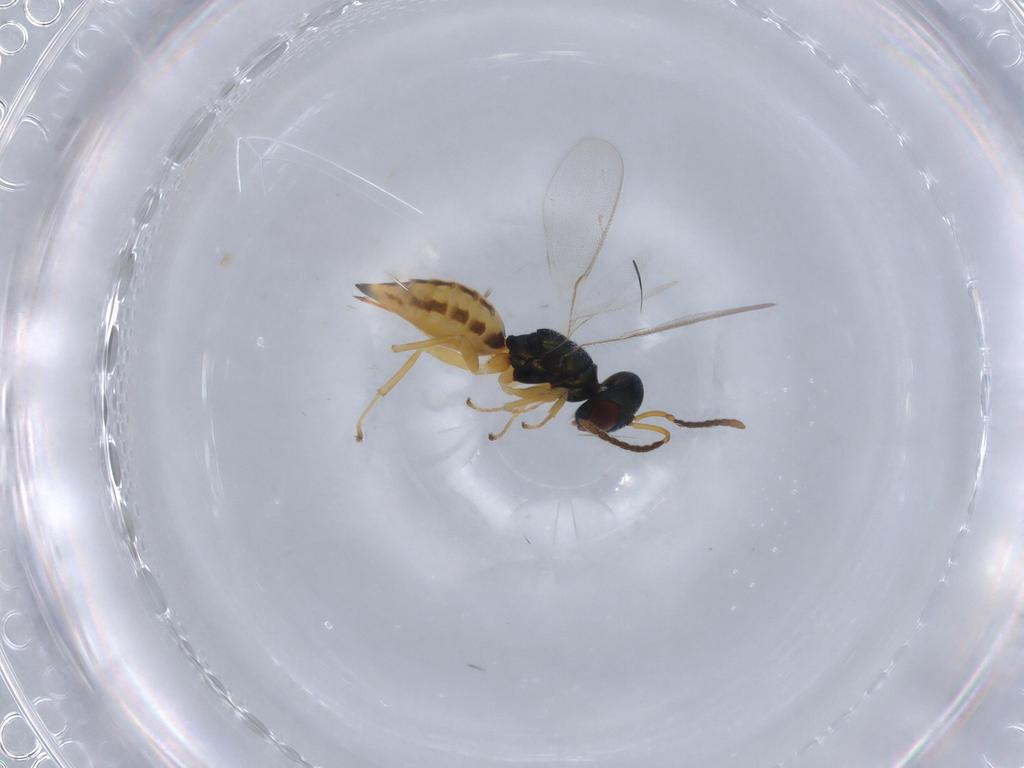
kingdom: Animalia
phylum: Arthropoda
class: Insecta
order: Hymenoptera
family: Pteromalidae
